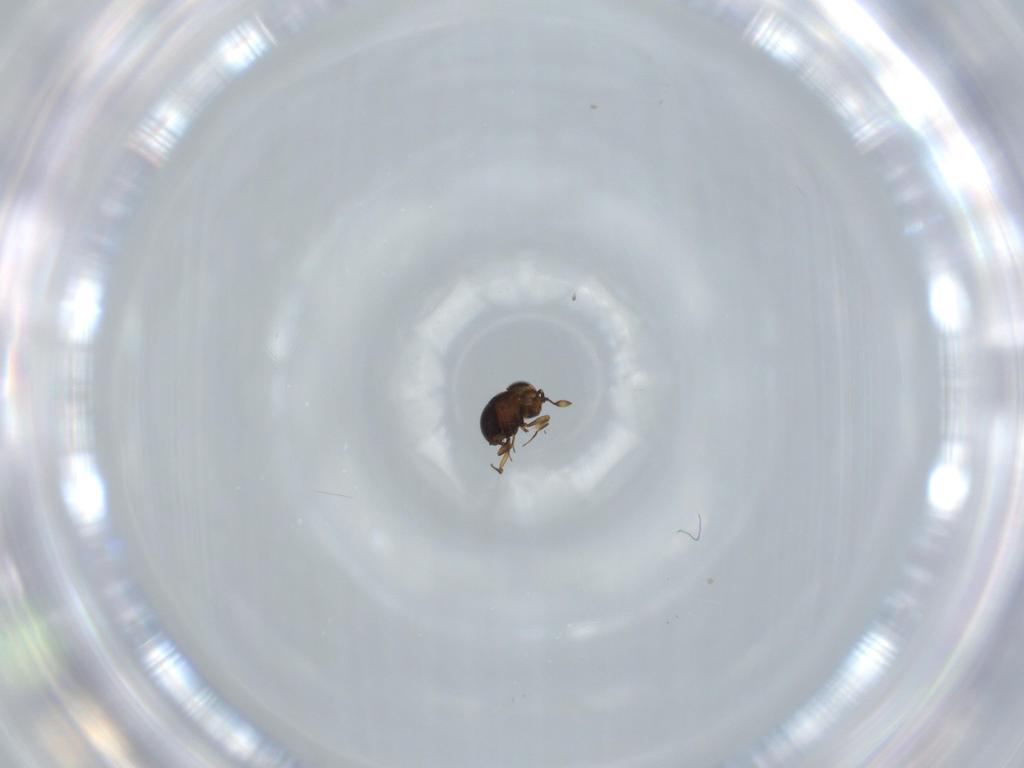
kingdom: Animalia
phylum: Arthropoda
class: Insecta
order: Hymenoptera
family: Scelionidae
